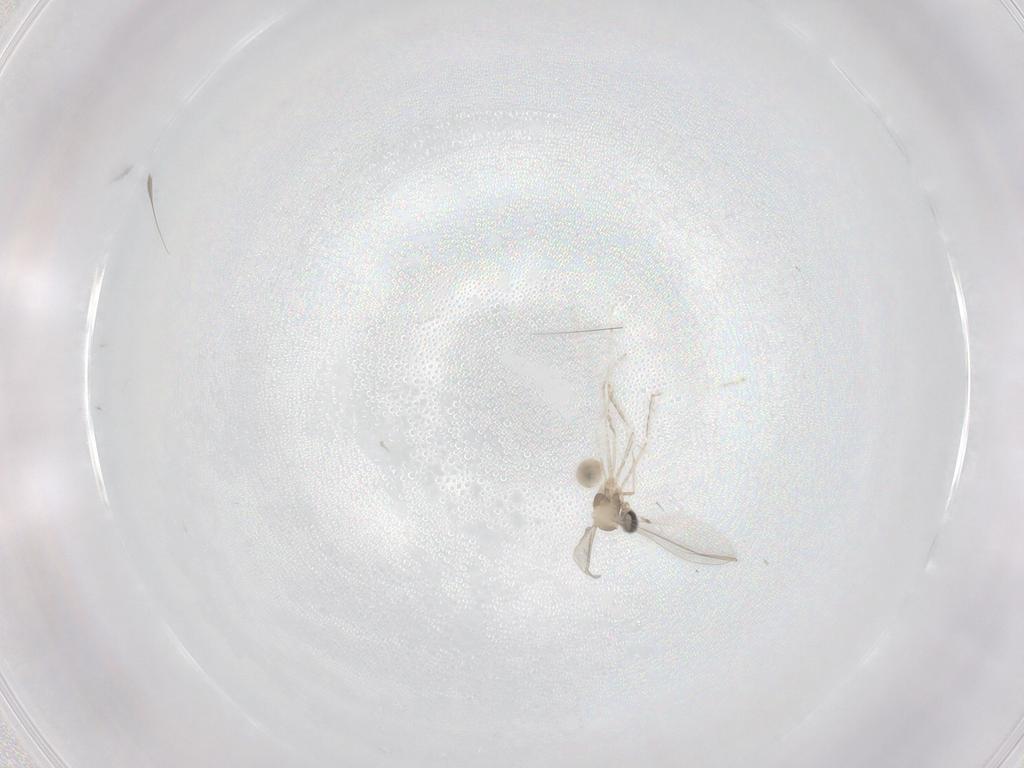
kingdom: Animalia
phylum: Arthropoda
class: Insecta
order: Diptera
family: Cecidomyiidae
